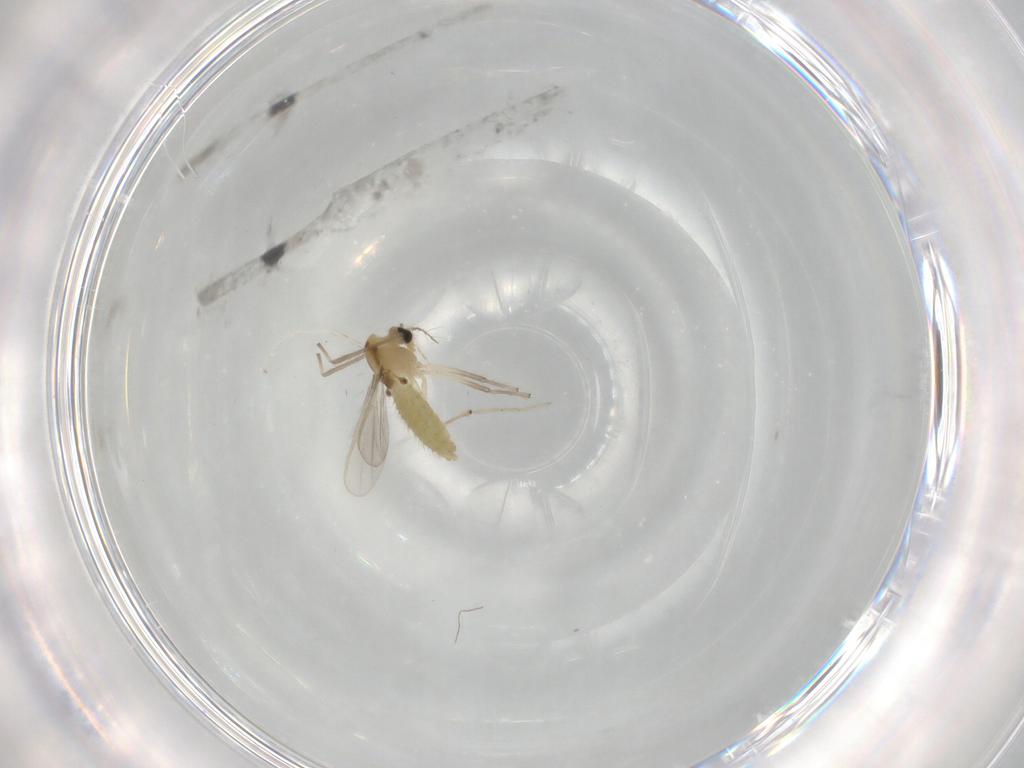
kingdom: Animalia
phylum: Arthropoda
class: Insecta
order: Diptera
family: Chironomidae
